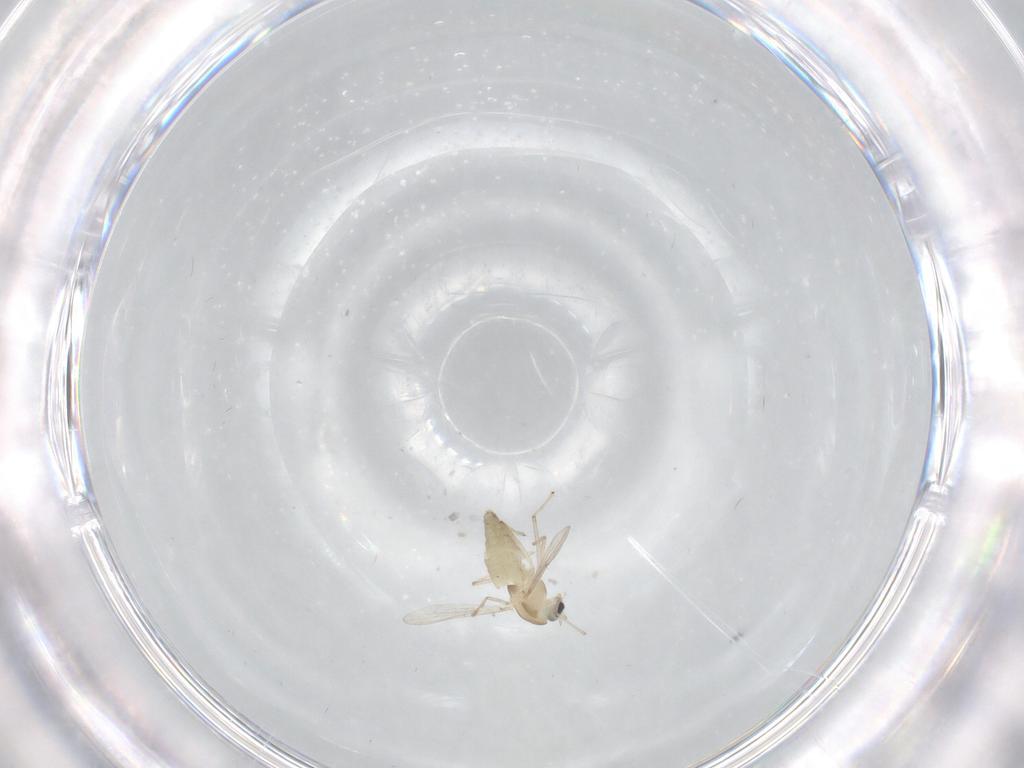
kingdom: Animalia
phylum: Arthropoda
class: Insecta
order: Diptera
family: Chironomidae
